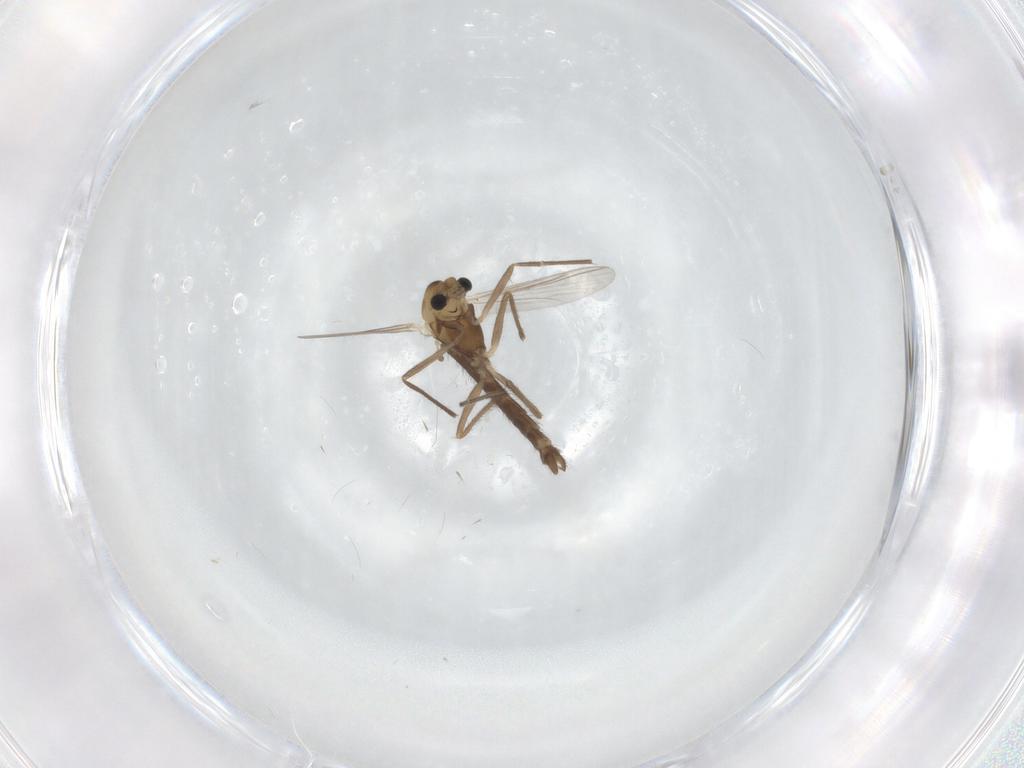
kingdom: Animalia
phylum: Arthropoda
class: Insecta
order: Diptera
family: Chironomidae
